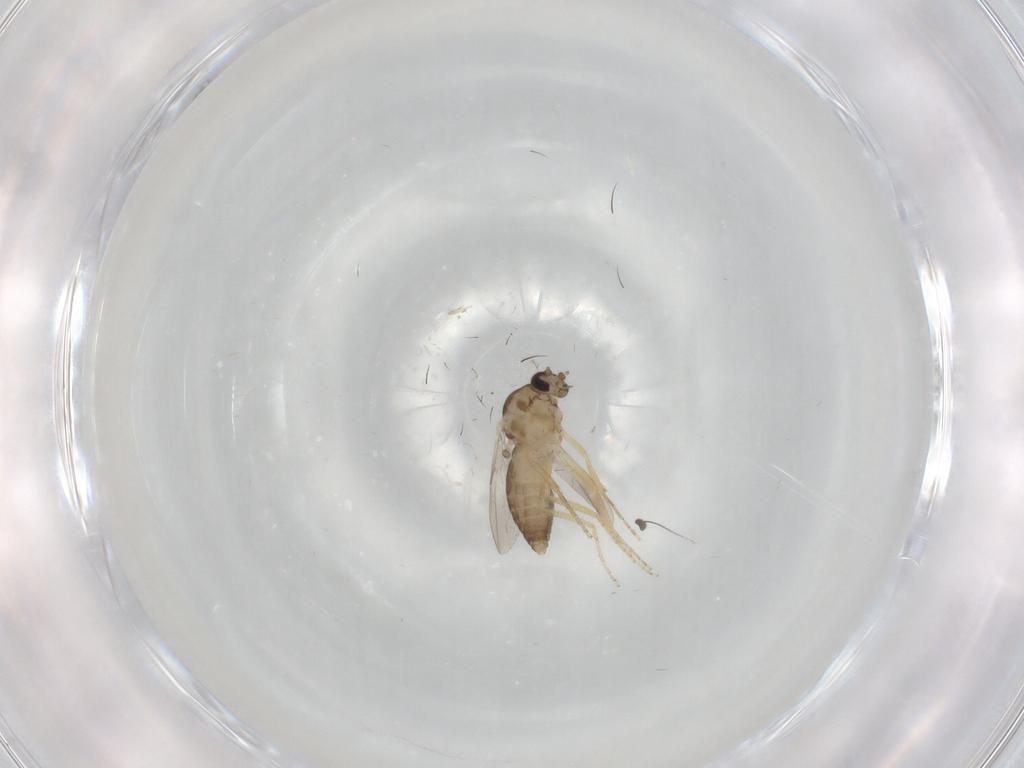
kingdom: Animalia
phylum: Arthropoda
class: Insecta
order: Diptera
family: Ceratopogonidae
